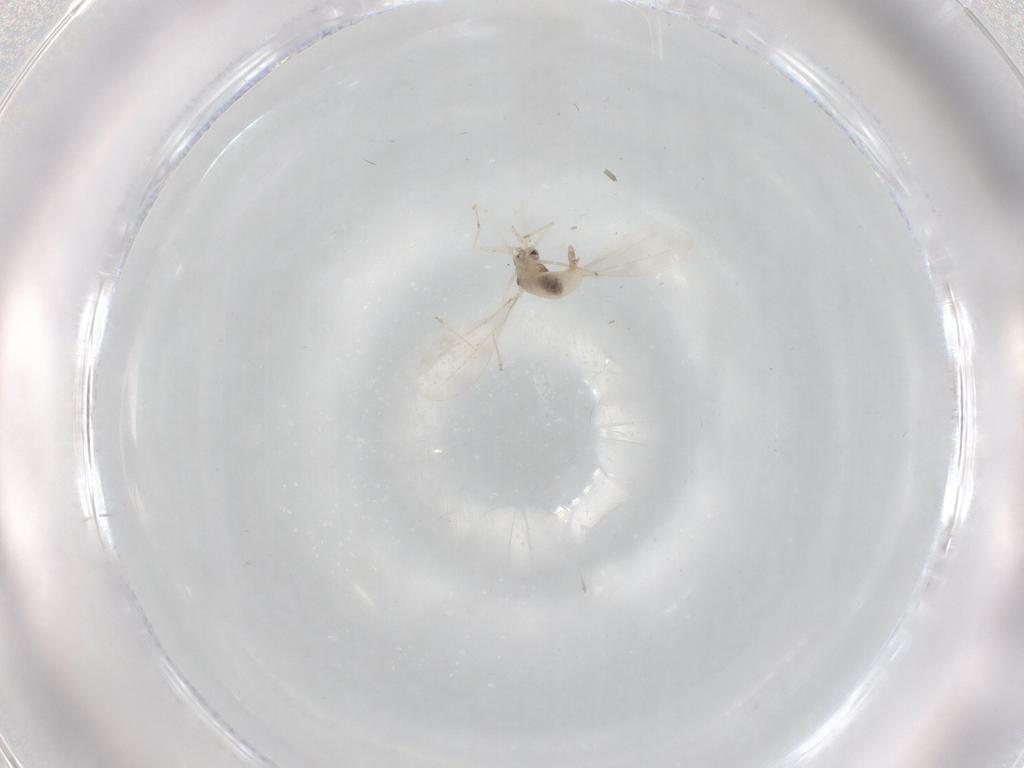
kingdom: Animalia
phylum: Arthropoda
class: Insecta
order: Diptera
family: Cecidomyiidae
